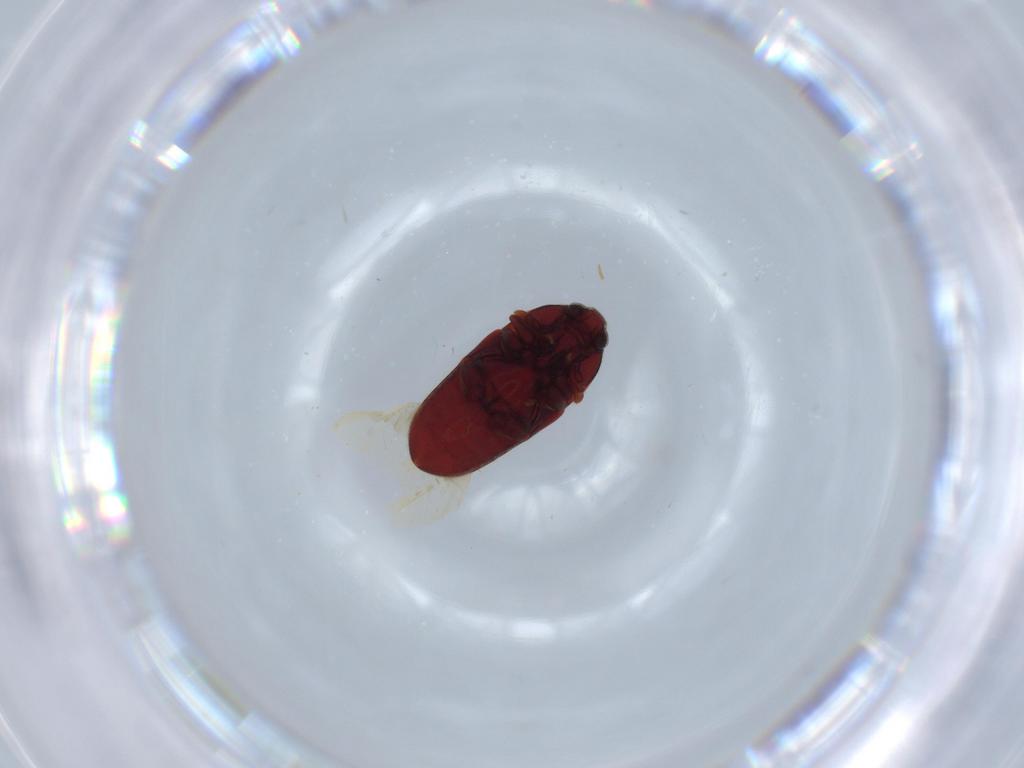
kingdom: Animalia
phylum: Arthropoda
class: Insecta
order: Coleoptera
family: Throscidae
